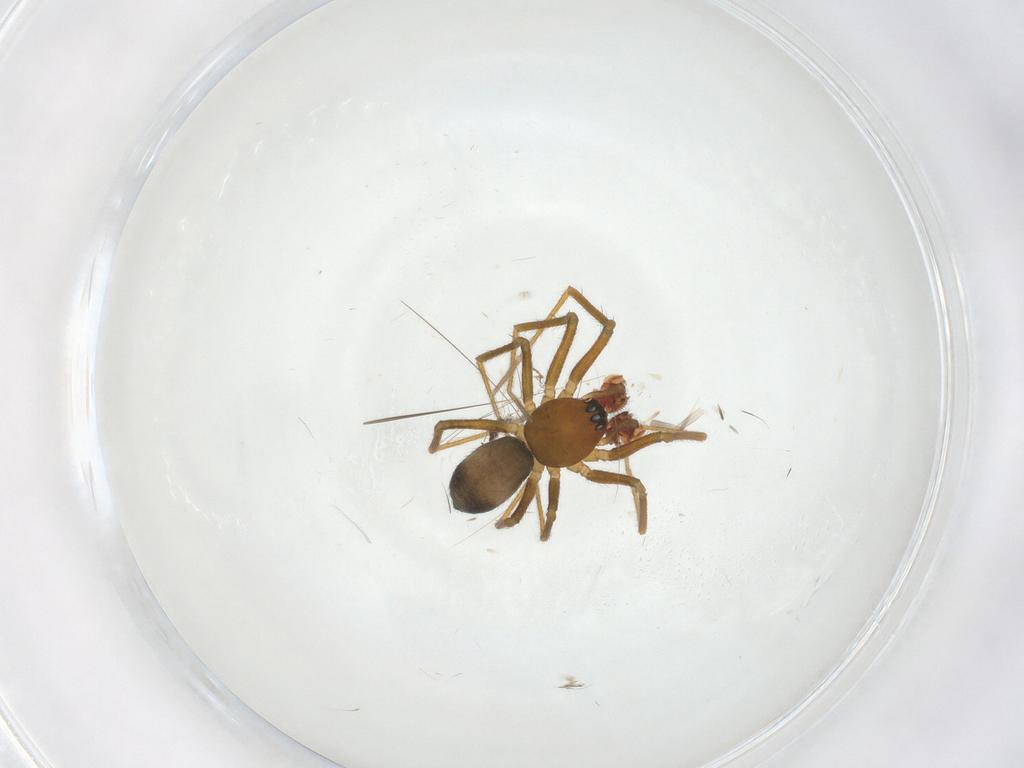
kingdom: Animalia
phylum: Arthropoda
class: Arachnida
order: Araneae
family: Linyphiidae
